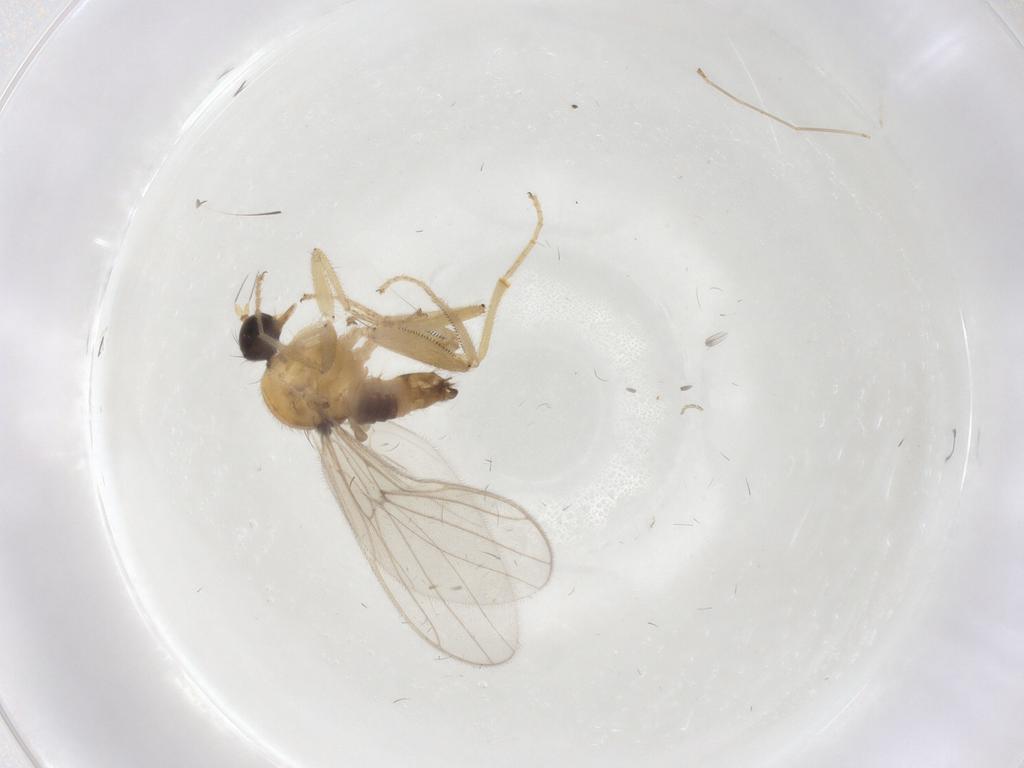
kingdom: Animalia
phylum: Arthropoda
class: Insecta
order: Diptera
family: Hybotidae
